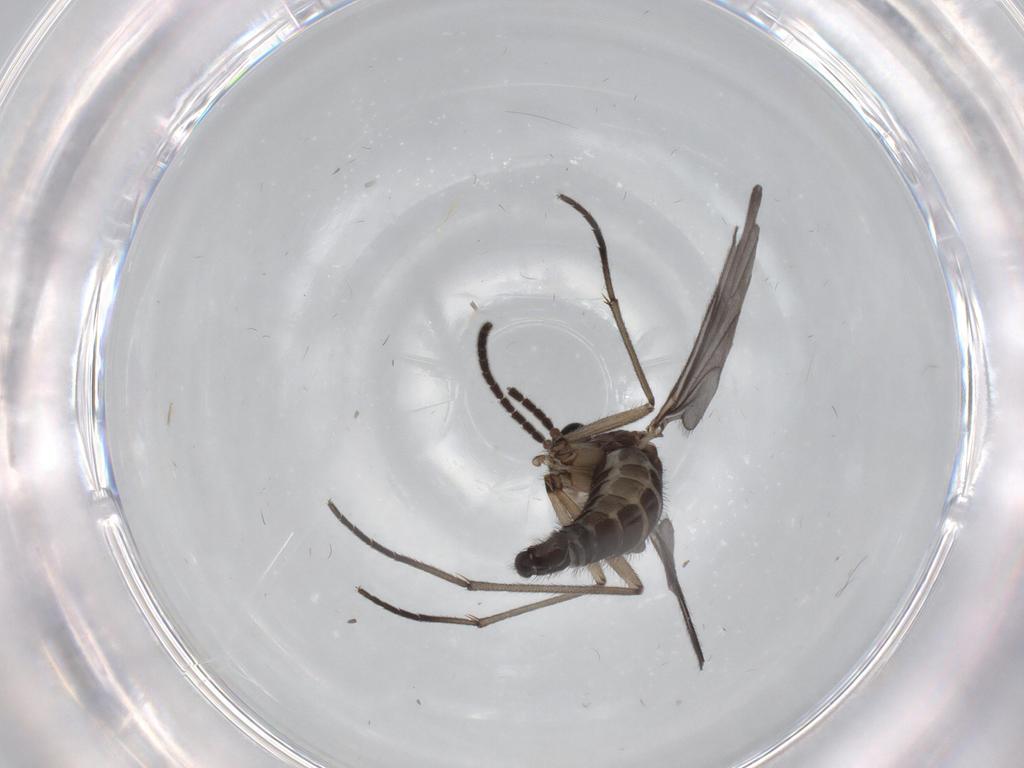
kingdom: Animalia
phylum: Arthropoda
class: Insecta
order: Diptera
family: Sciaridae
